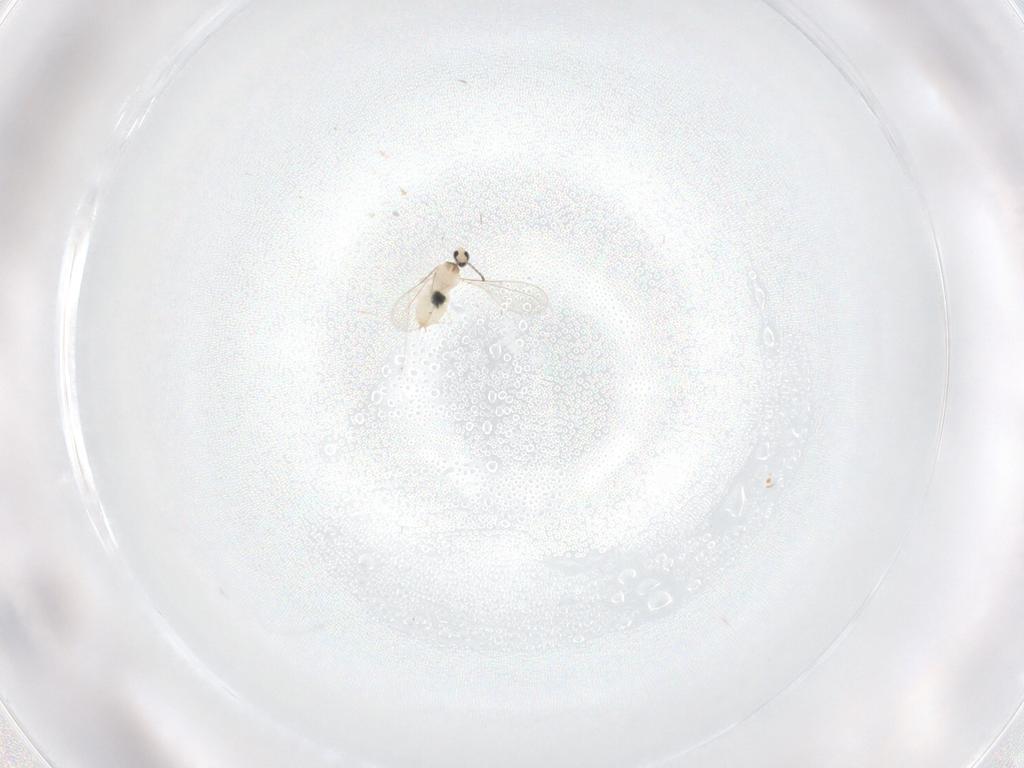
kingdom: Animalia
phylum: Arthropoda
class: Insecta
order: Diptera
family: Cecidomyiidae
